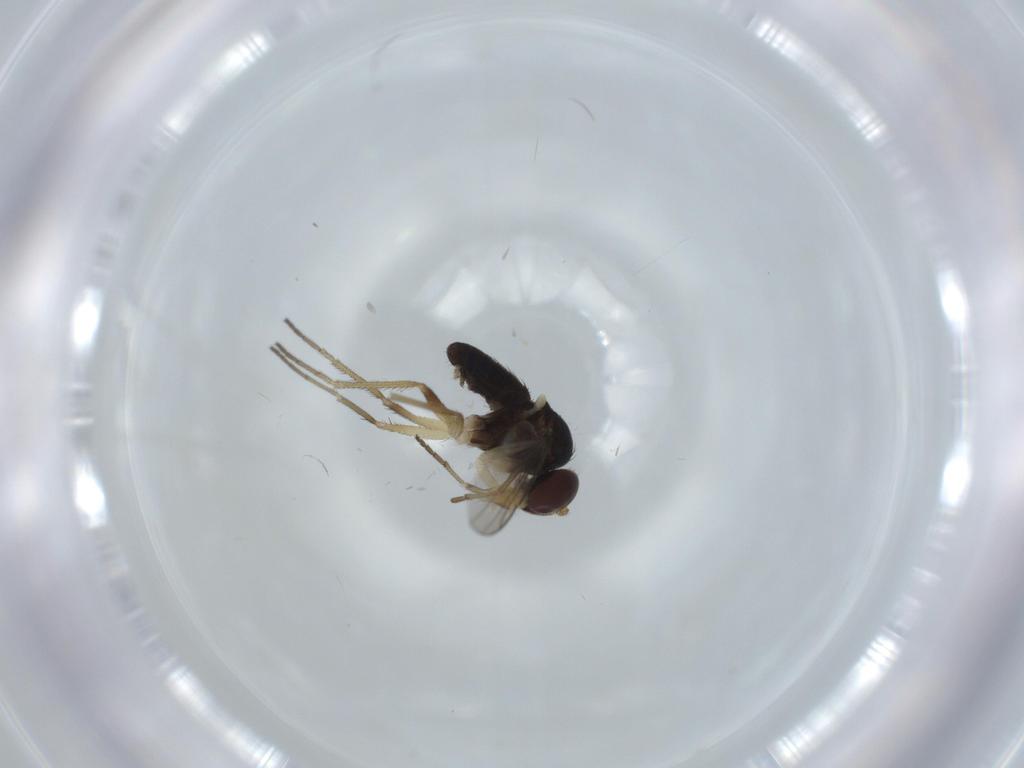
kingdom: Animalia
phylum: Arthropoda
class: Insecta
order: Diptera
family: Dolichopodidae
